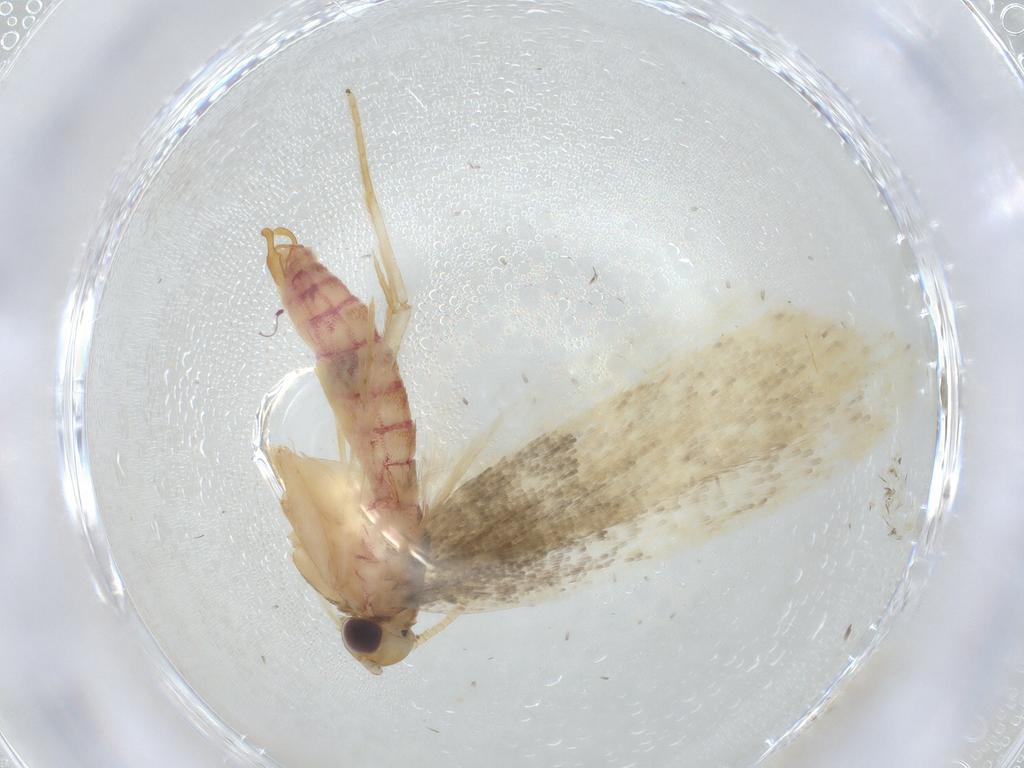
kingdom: Animalia
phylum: Arthropoda
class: Insecta
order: Lepidoptera
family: Lecithoceridae
